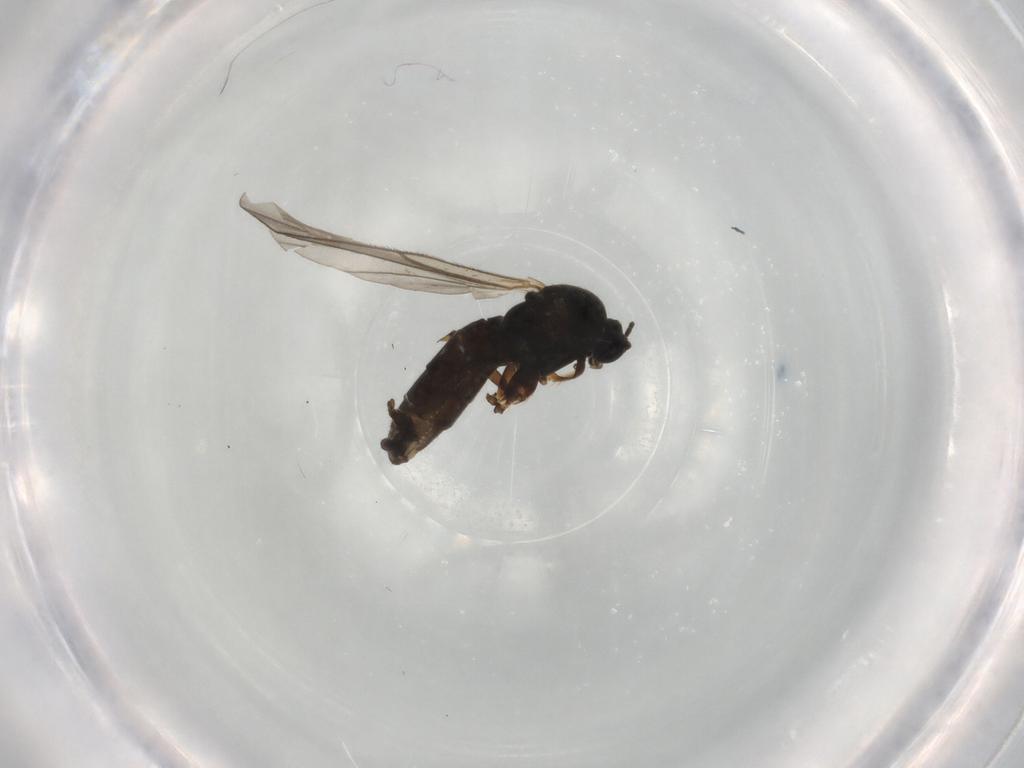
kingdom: Animalia
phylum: Arthropoda
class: Insecta
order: Diptera
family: Sciaridae
